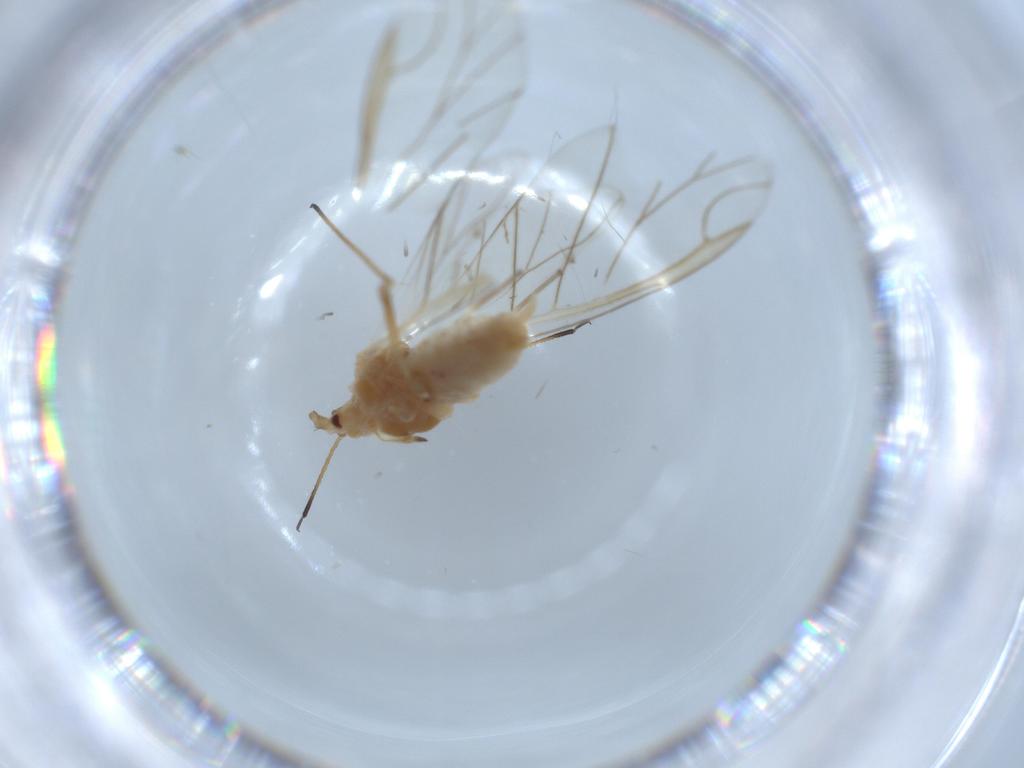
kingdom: Animalia
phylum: Arthropoda
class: Insecta
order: Hemiptera
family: Aphididae
